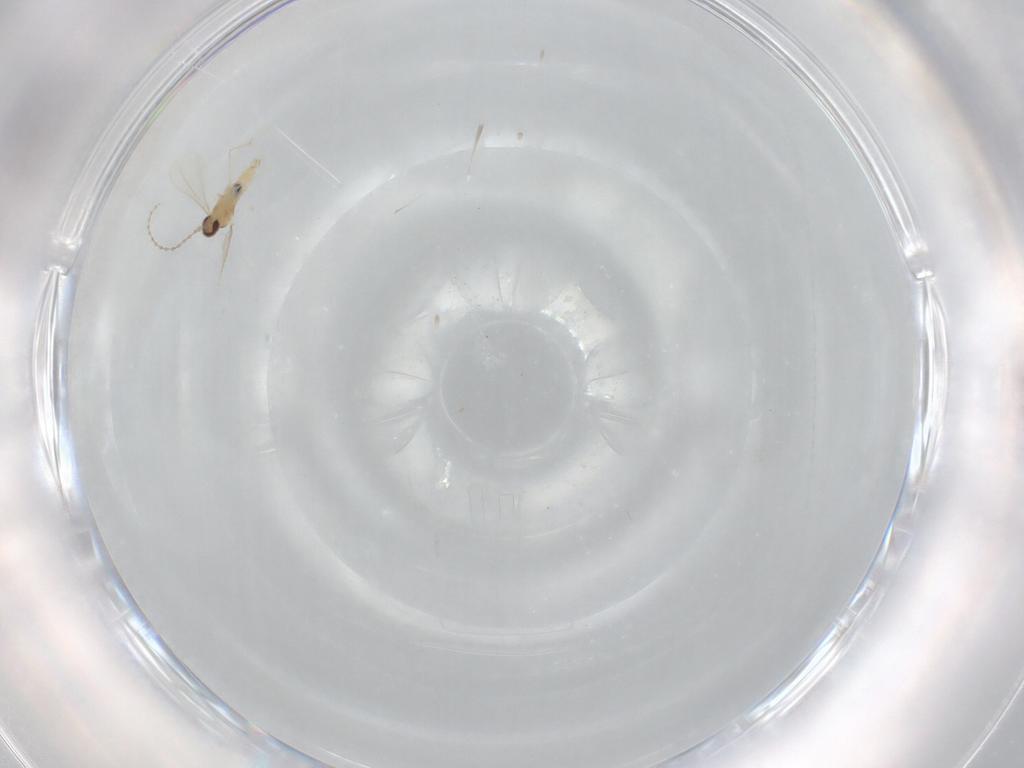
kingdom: Animalia
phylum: Arthropoda
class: Insecta
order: Diptera
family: Cecidomyiidae
